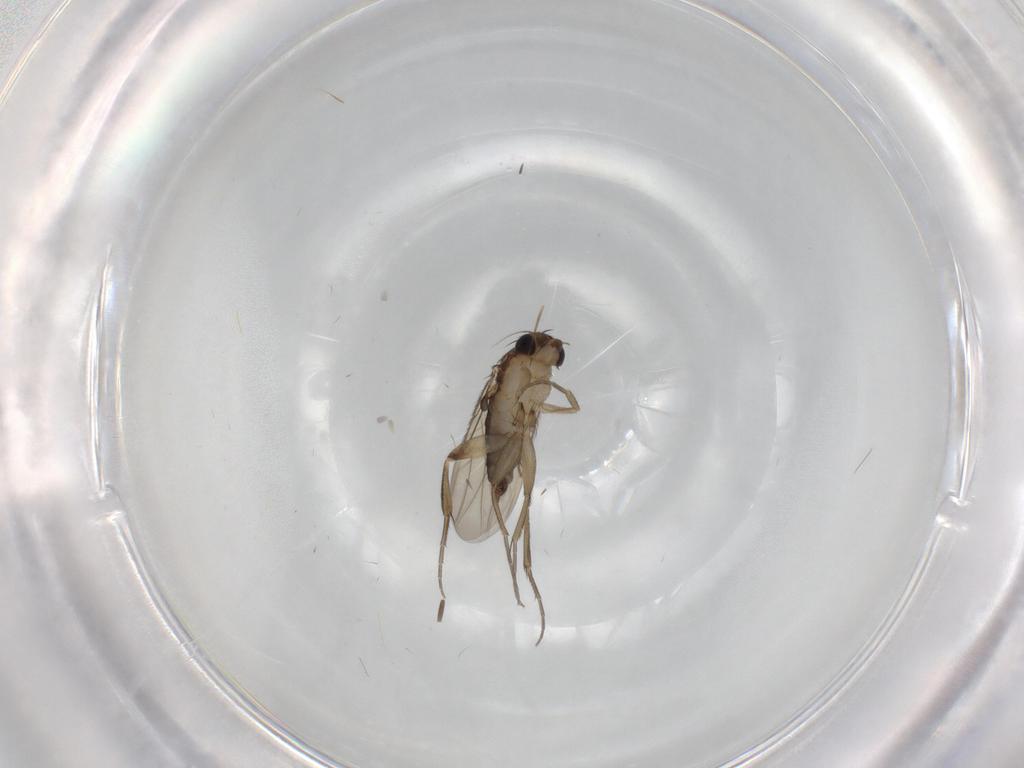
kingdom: Animalia
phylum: Arthropoda
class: Insecta
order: Diptera
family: Phoridae
